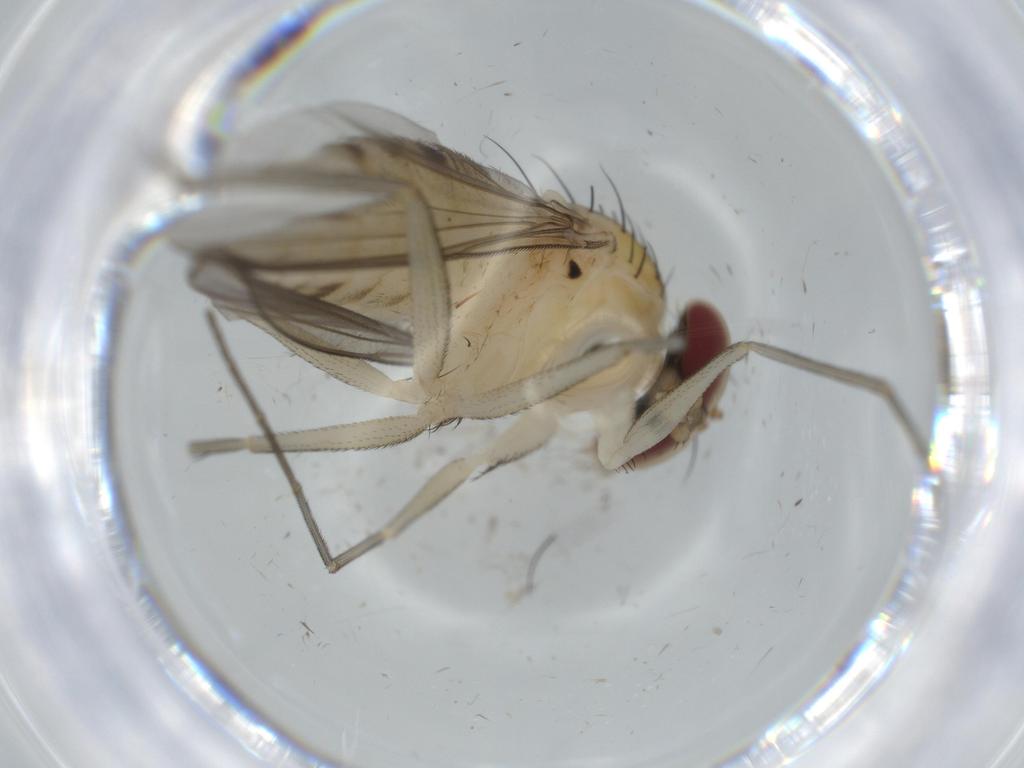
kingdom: Animalia
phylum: Arthropoda
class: Insecta
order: Diptera
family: Dolichopodidae
